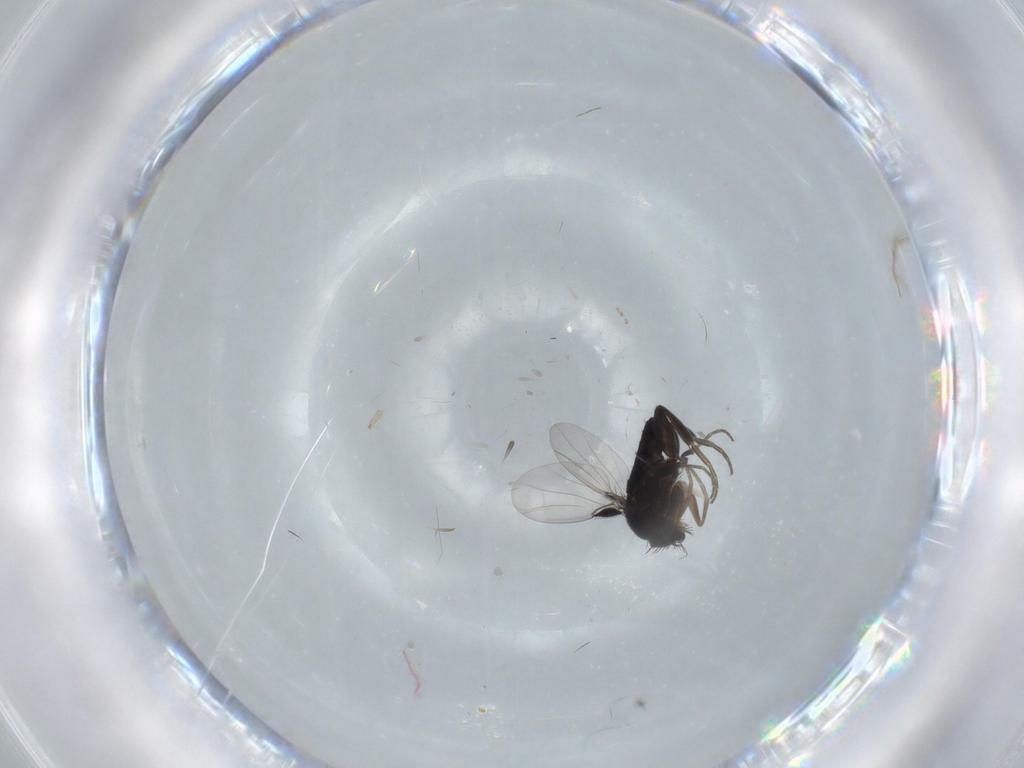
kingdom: Animalia
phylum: Arthropoda
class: Insecta
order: Diptera
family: Phoridae
